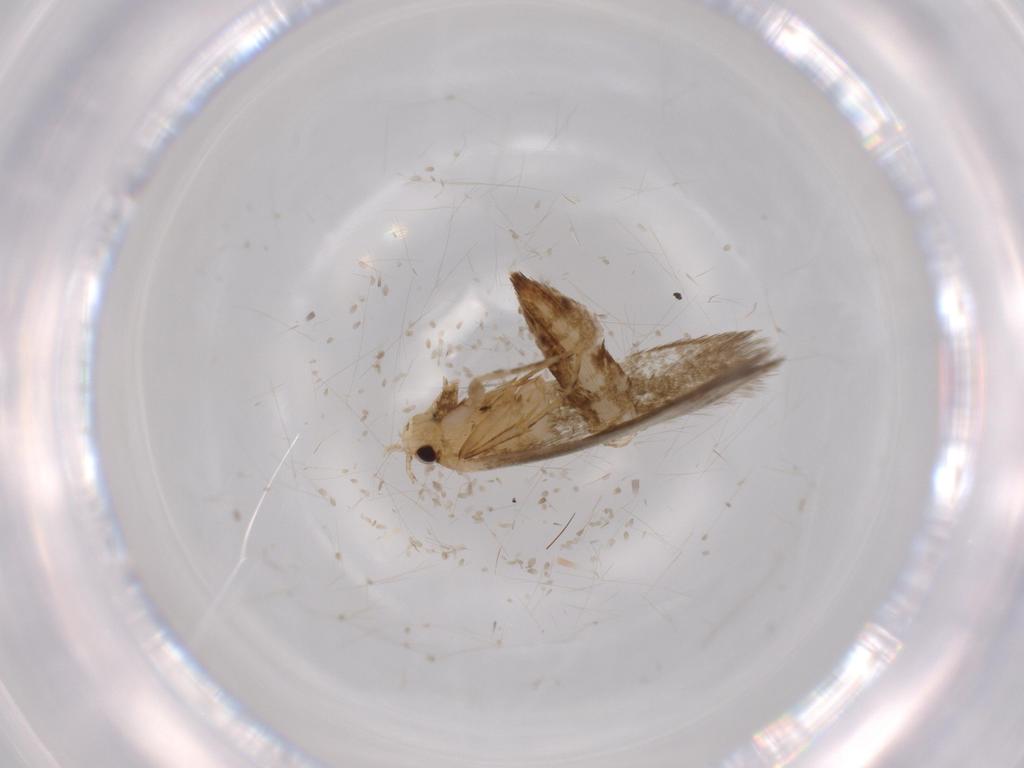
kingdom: Animalia
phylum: Arthropoda
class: Insecta
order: Lepidoptera
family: Tineidae
